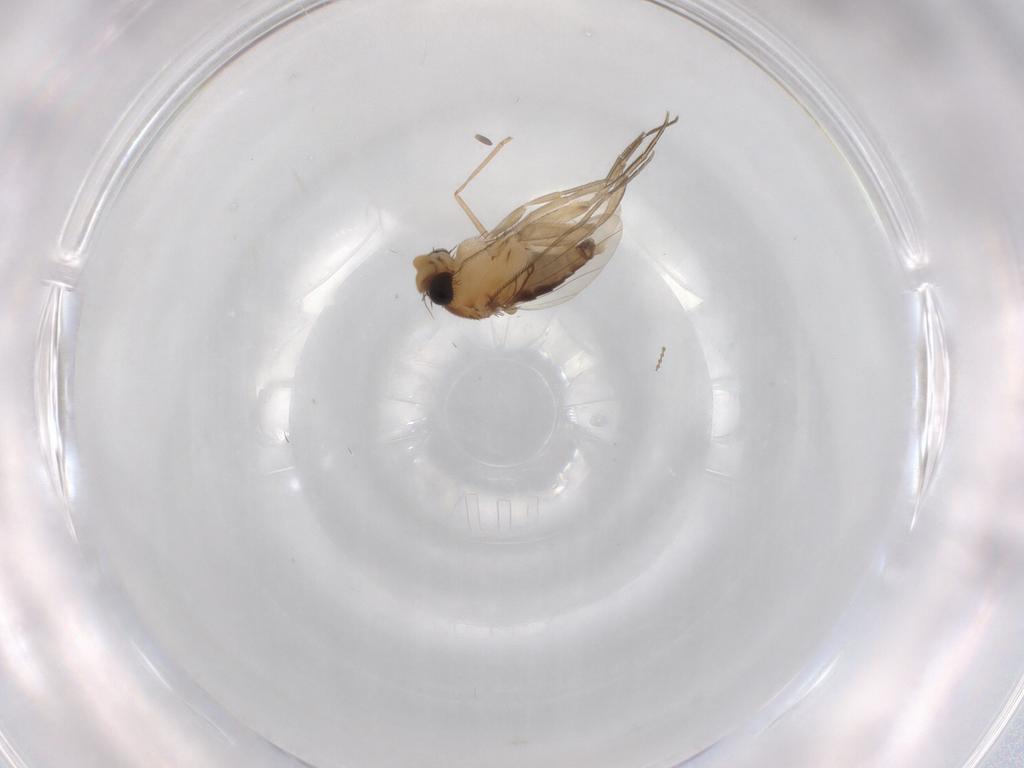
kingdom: Animalia
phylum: Arthropoda
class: Insecta
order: Diptera
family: Phoridae
